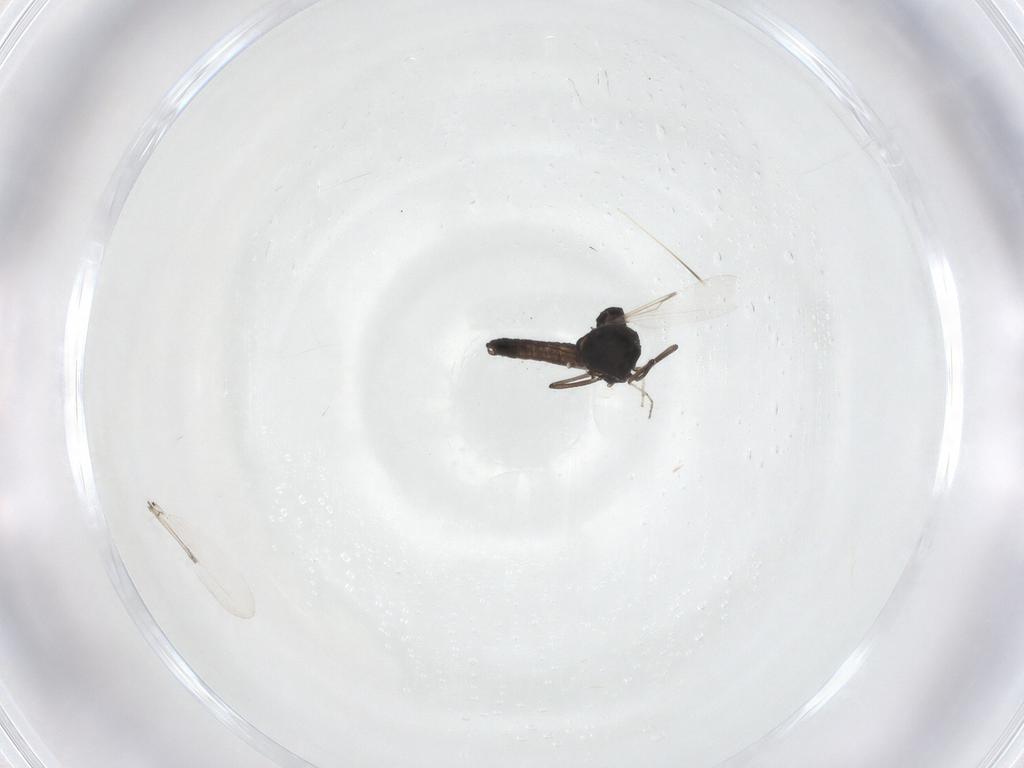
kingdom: Animalia
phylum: Arthropoda
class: Insecta
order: Diptera
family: Ceratopogonidae
